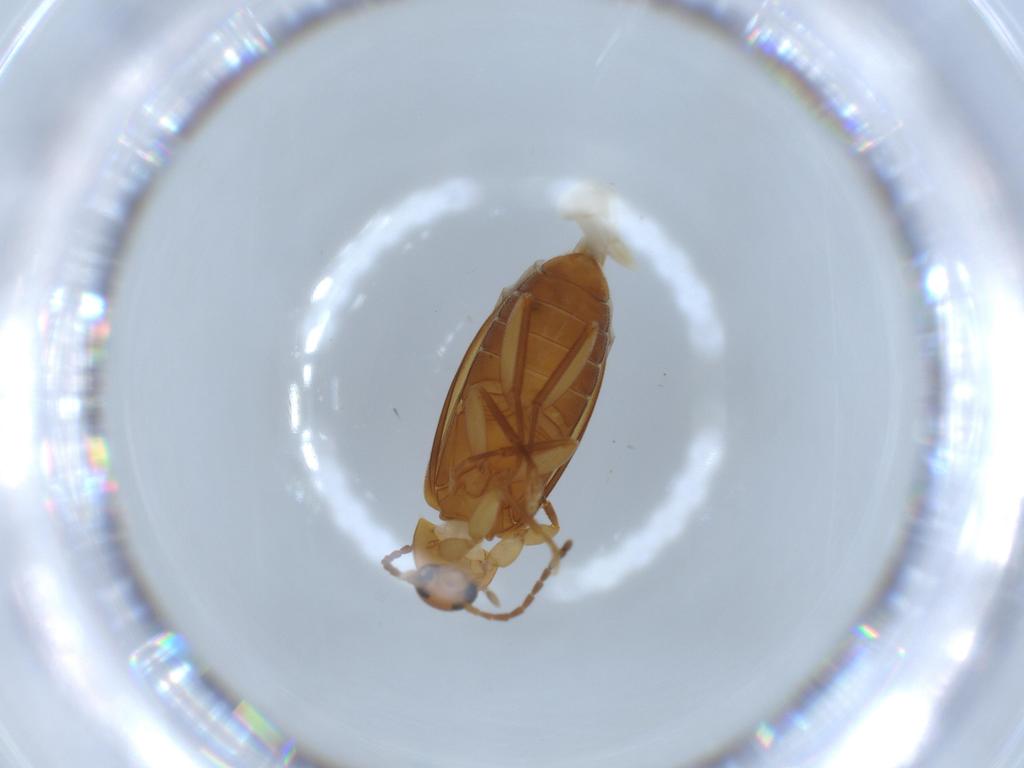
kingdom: Animalia
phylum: Arthropoda
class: Insecta
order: Coleoptera
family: Scraptiidae
